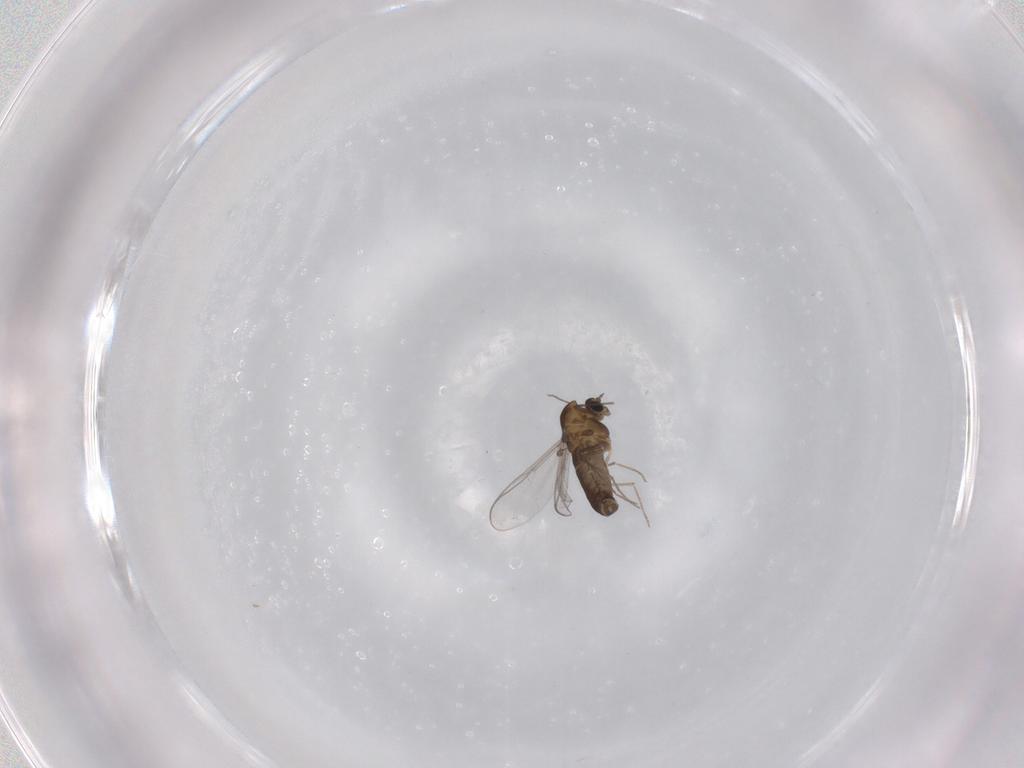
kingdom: Animalia
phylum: Arthropoda
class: Insecta
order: Diptera
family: Chironomidae
